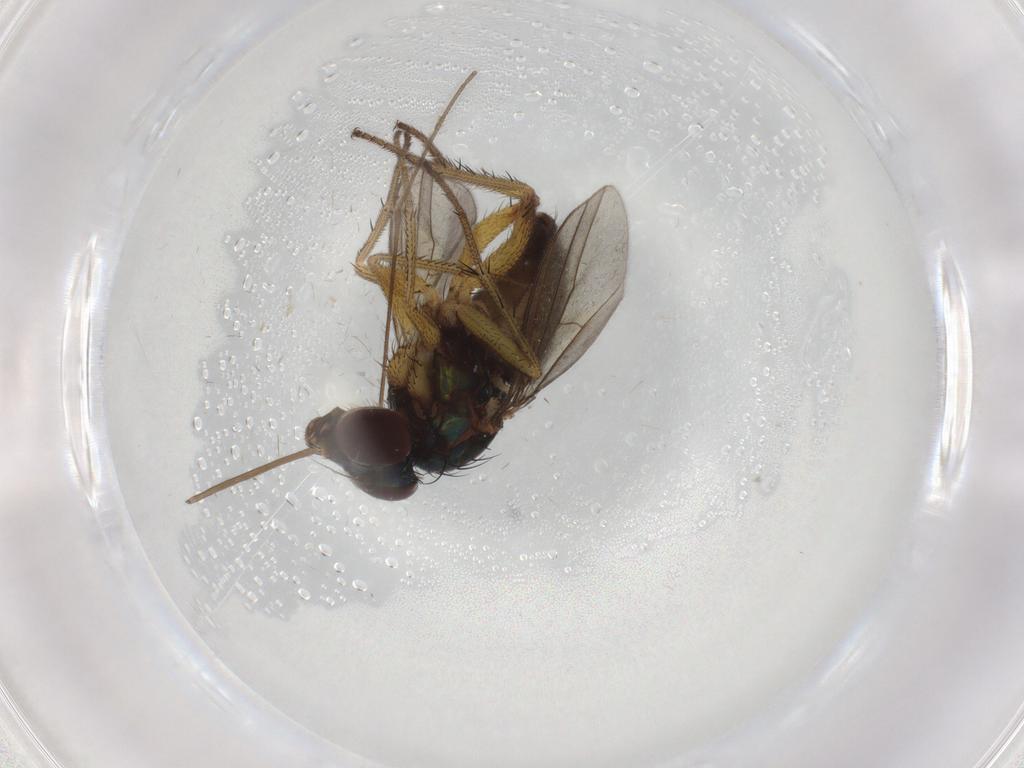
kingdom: Animalia
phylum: Arthropoda
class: Insecta
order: Diptera
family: Dolichopodidae
